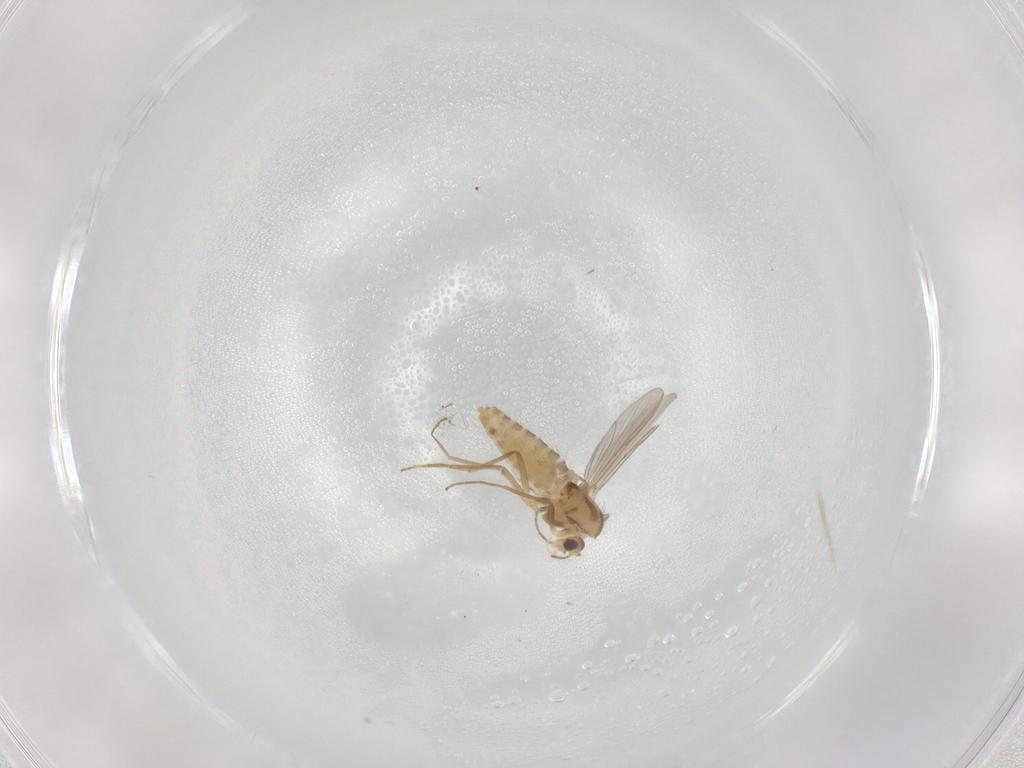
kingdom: Animalia
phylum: Arthropoda
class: Insecta
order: Diptera
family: Chironomidae
